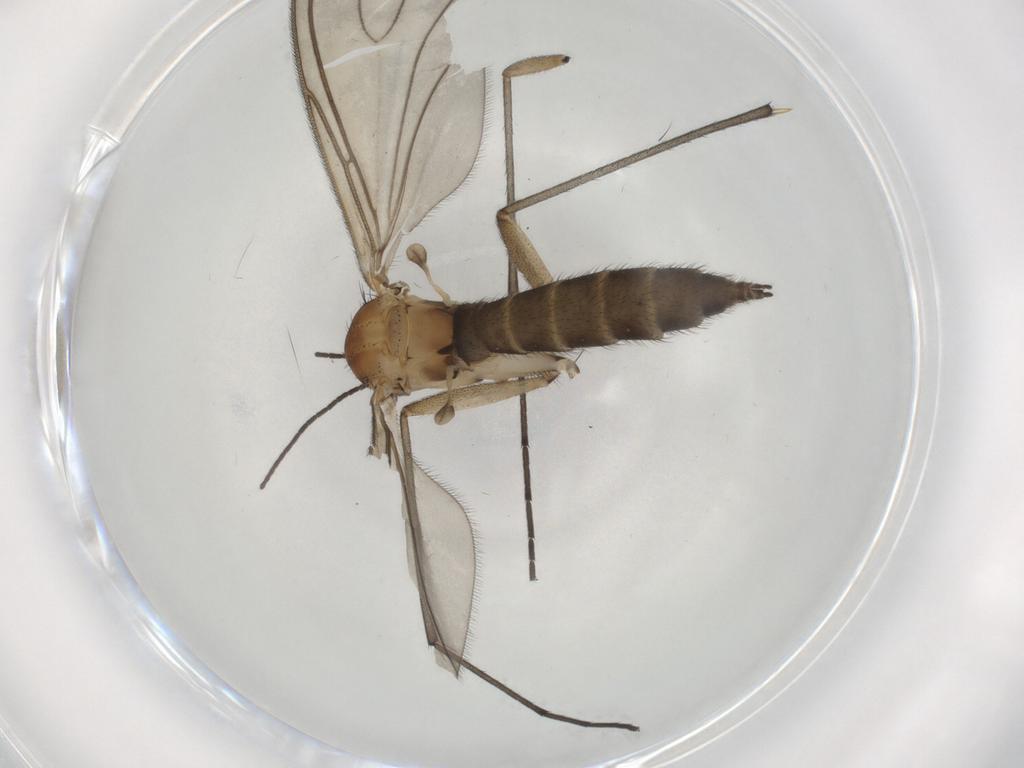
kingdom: Animalia
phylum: Arthropoda
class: Insecta
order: Diptera
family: Sciaridae
